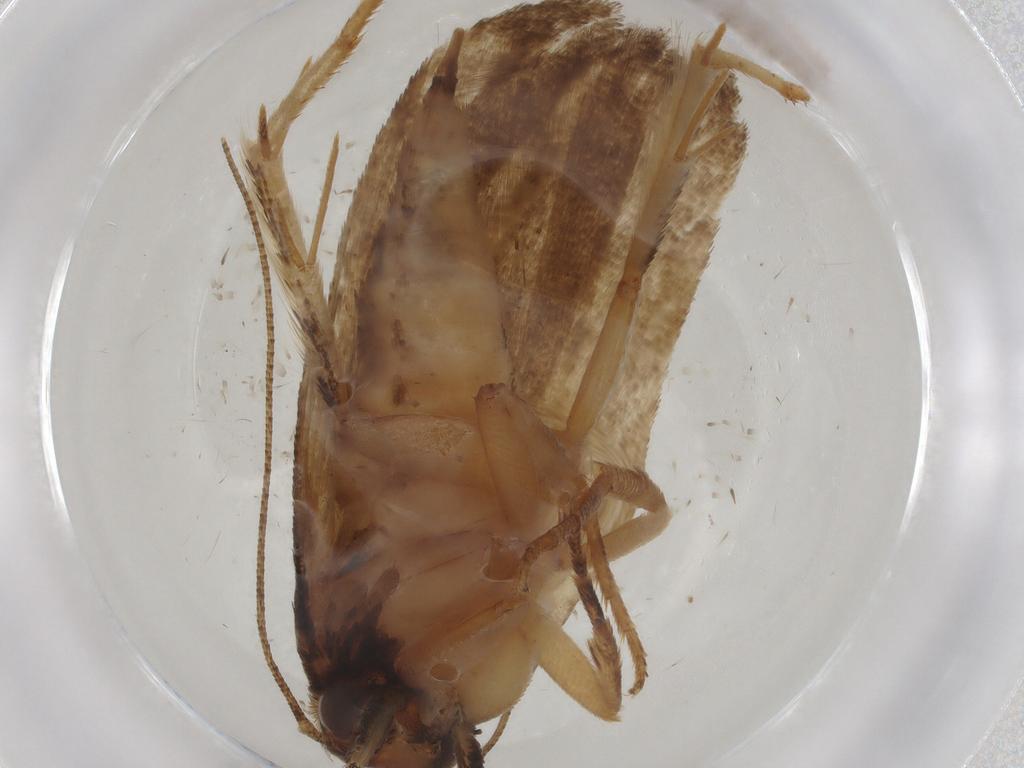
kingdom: Animalia
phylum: Arthropoda
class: Insecta
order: Lepidoptera
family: Gelechiidae
